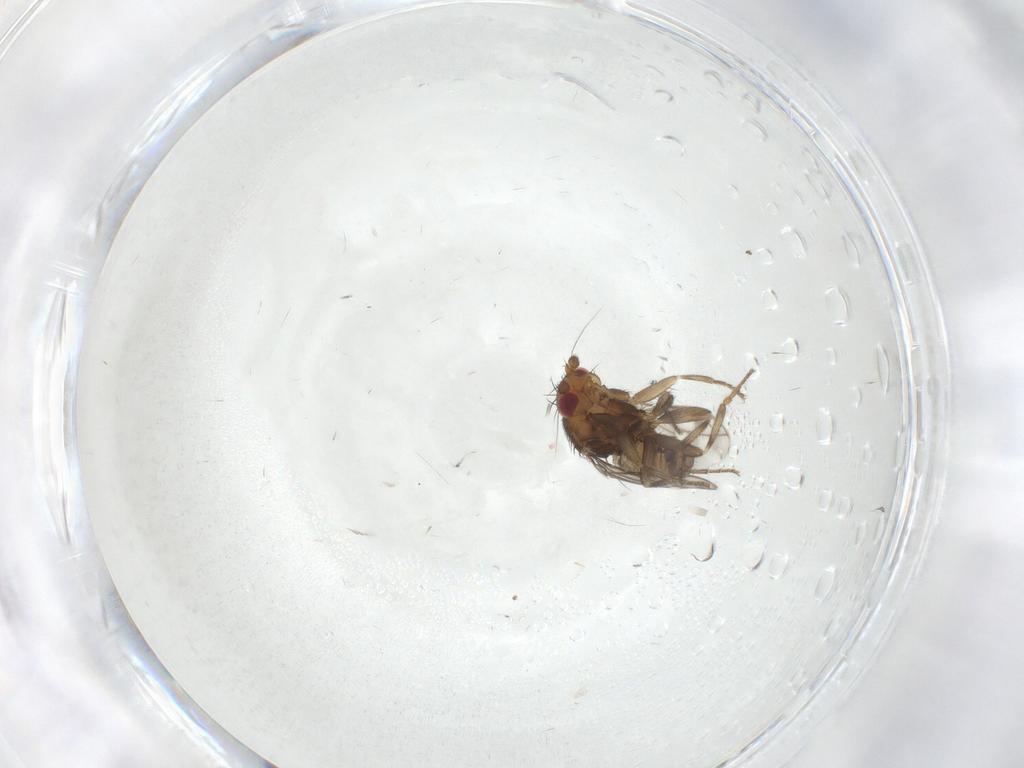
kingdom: Animalia
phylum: Arthropoda
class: Insecta
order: Diptera
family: Sphaeroceridae
